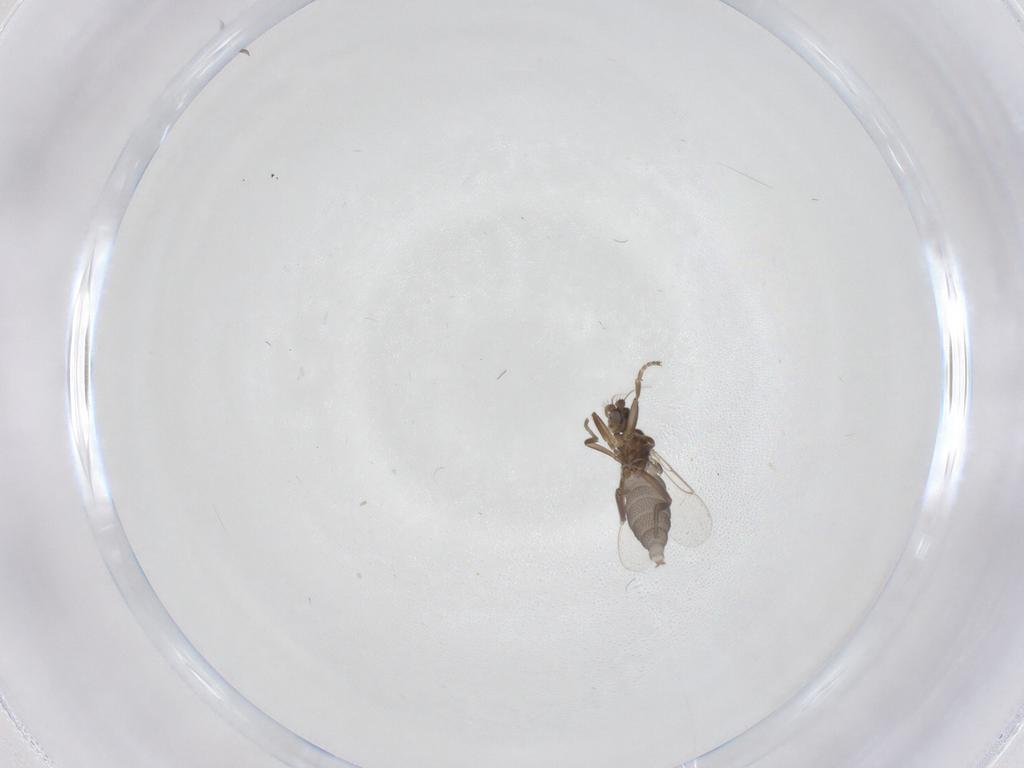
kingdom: Animalia
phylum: Arthropoda
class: Insecta
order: Diptera
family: Phoridae
